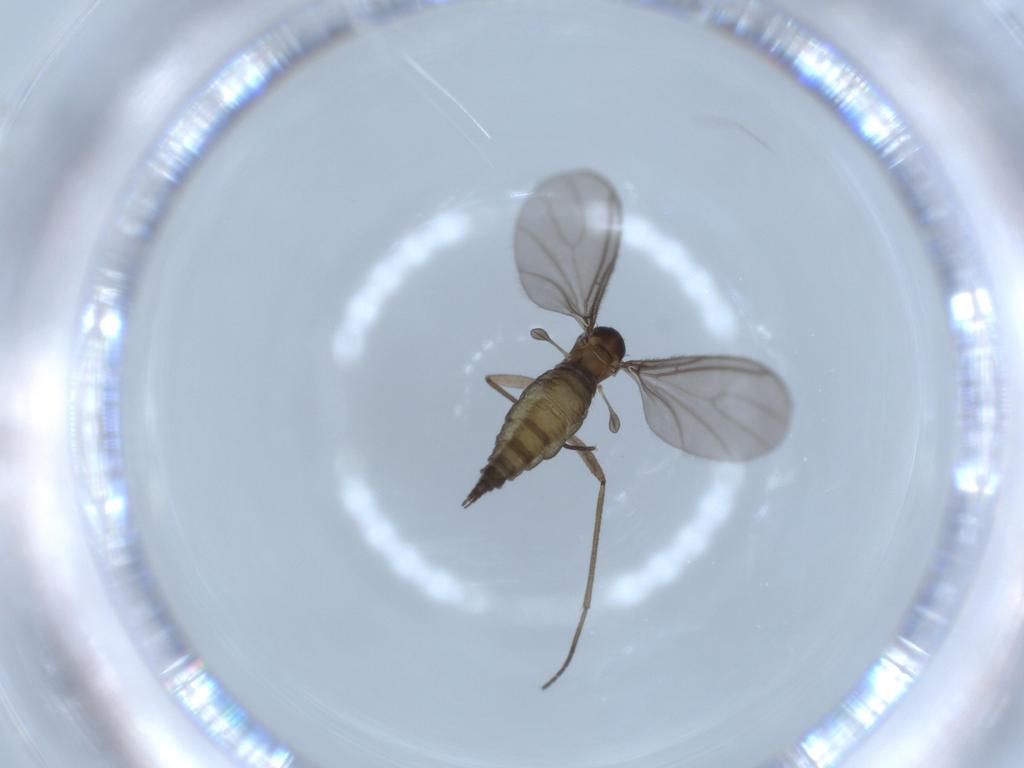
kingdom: Animalia
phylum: Arthropoda
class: Insecta
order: Diptera
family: Sciaridae
